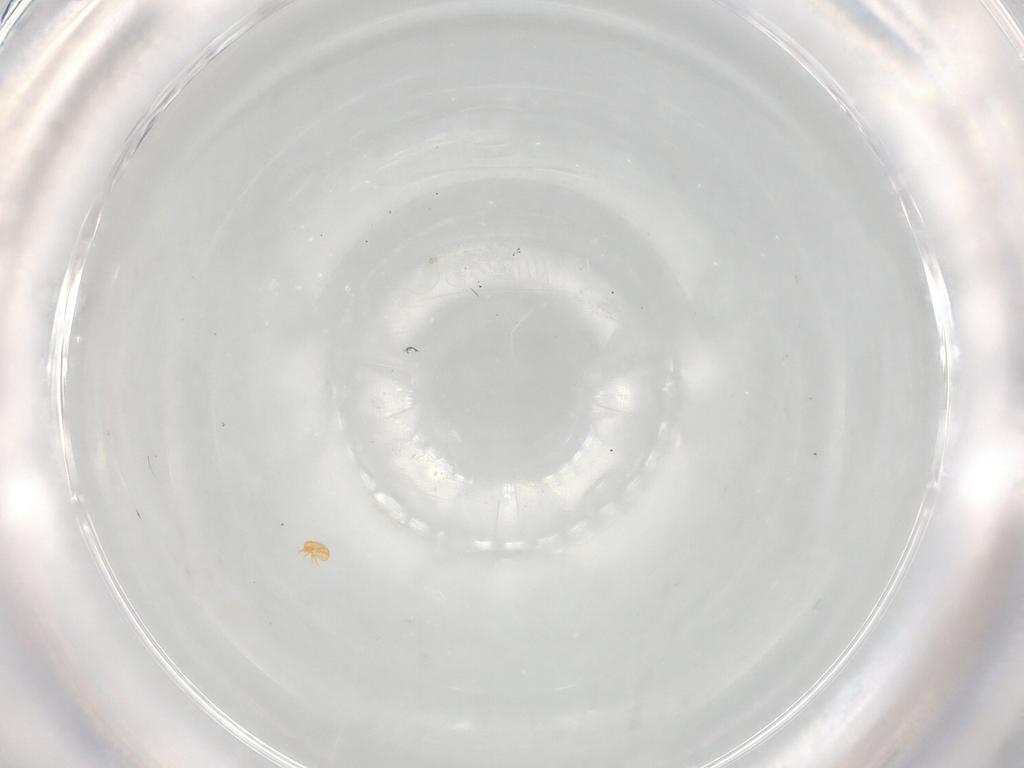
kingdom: Animalia
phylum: Arthropoda
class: Arachnida
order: Sarcoptiformes
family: Brachychthoniidae
